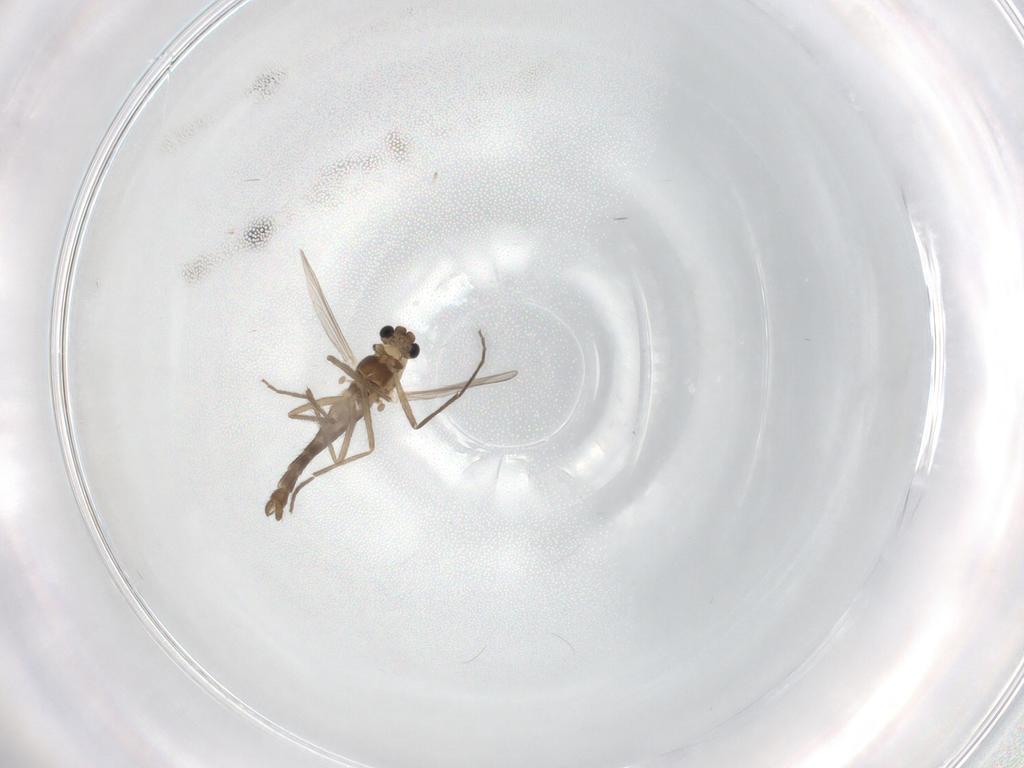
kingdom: Animalia
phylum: Arthropoda
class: Insecta
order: Diptera
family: Chironomidae
